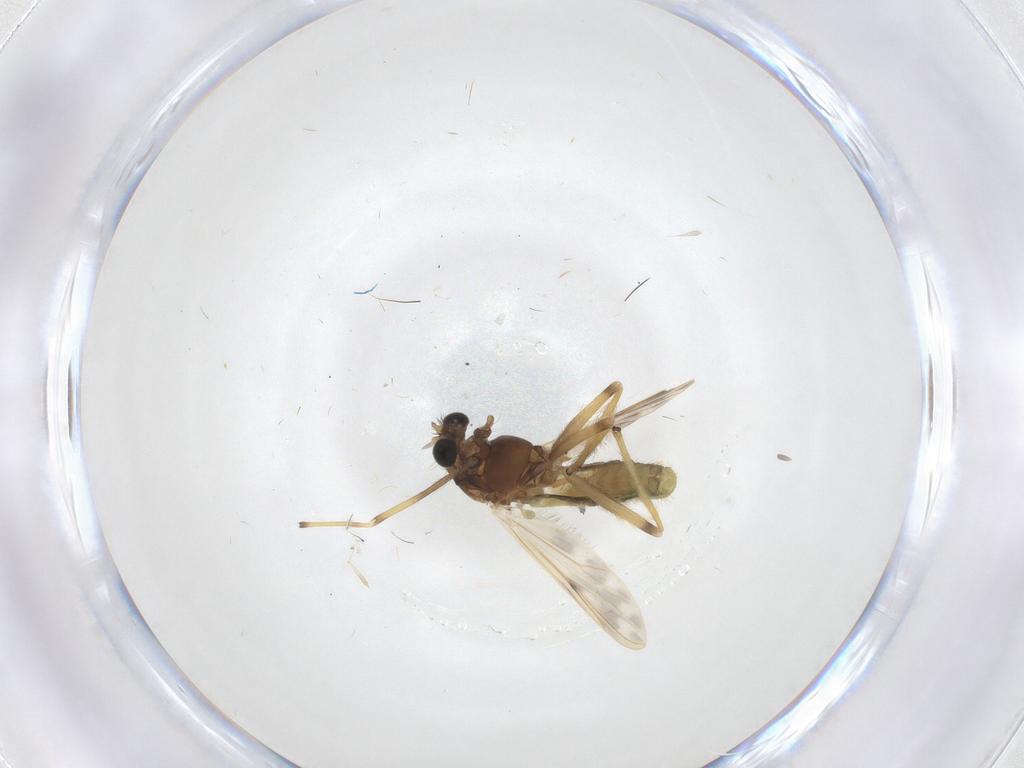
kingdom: Animalia
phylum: Arthropoda
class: Insecta
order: Diptera
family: Chironomidae
